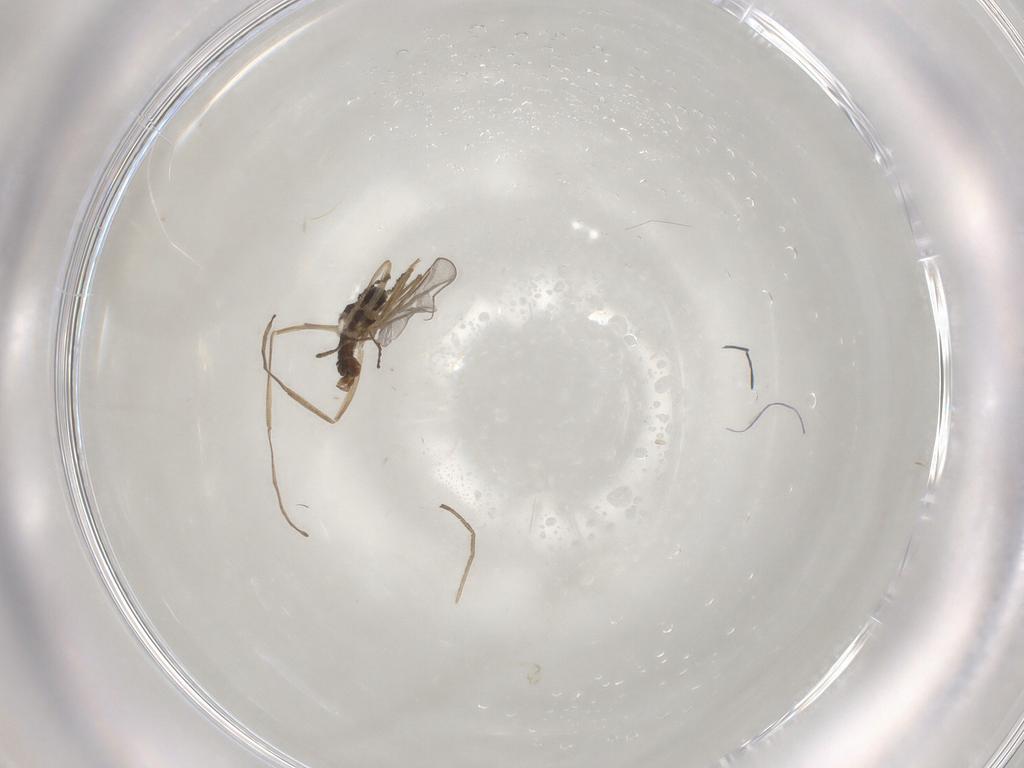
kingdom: Animalia
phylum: Arthropoda
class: Insecta
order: Diptera
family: Cecidomyiidae
